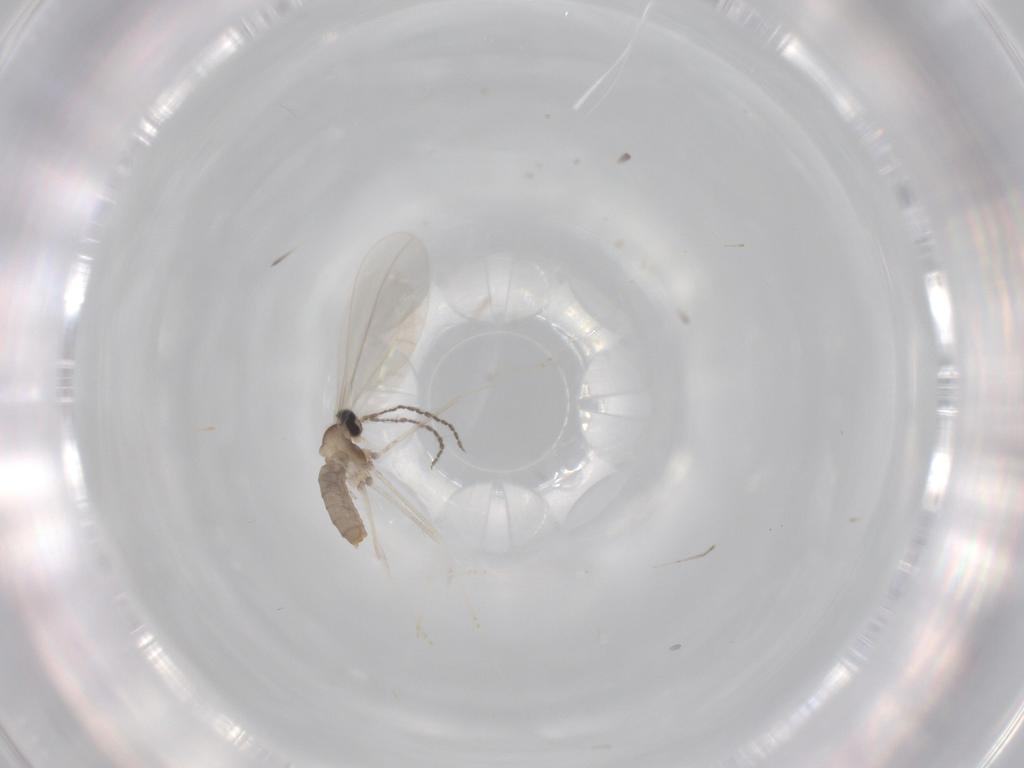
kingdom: Animalia
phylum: Arthropoda
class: Insecta
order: Diptera
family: Cecidomyiidae
